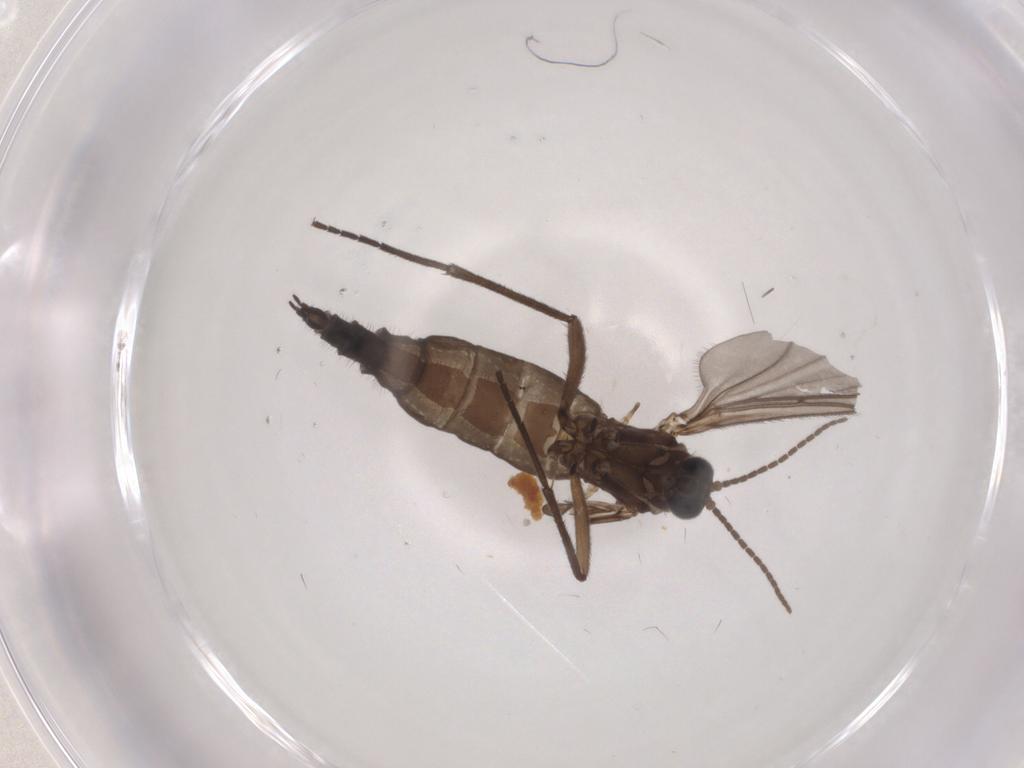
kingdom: Animalia
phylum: Arthropoda
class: Insecta
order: Diptera
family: Sciaridae
